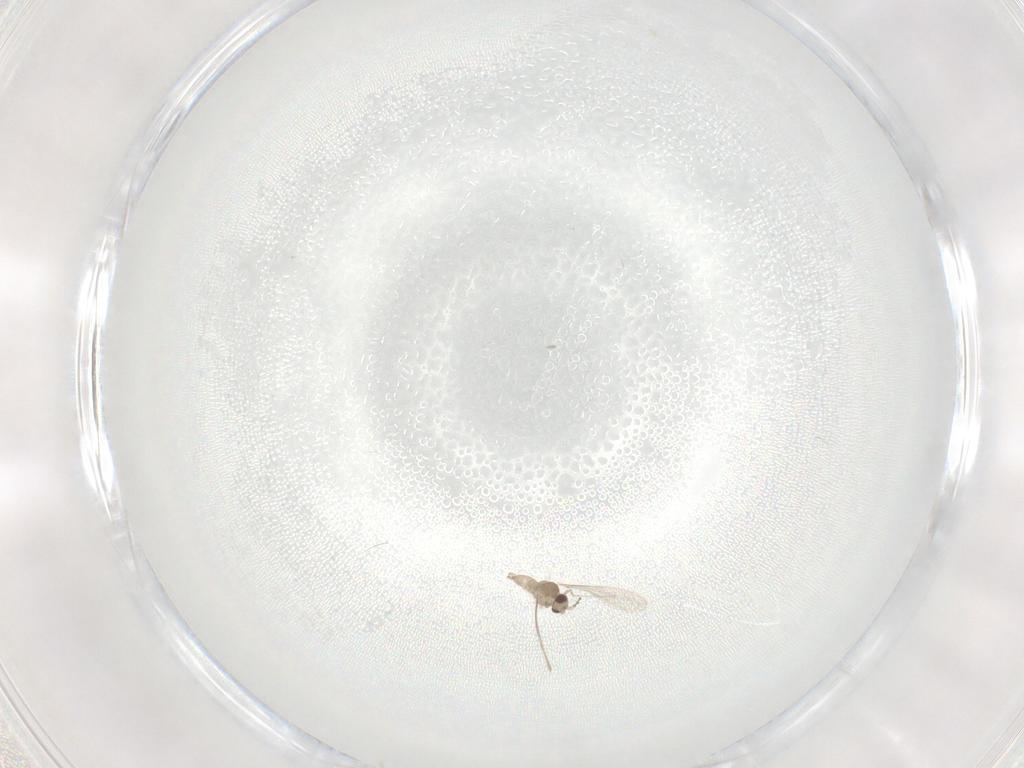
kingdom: Animalia
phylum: Arthropoda
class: Insecta
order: Diptera
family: Cecidomyiidae
